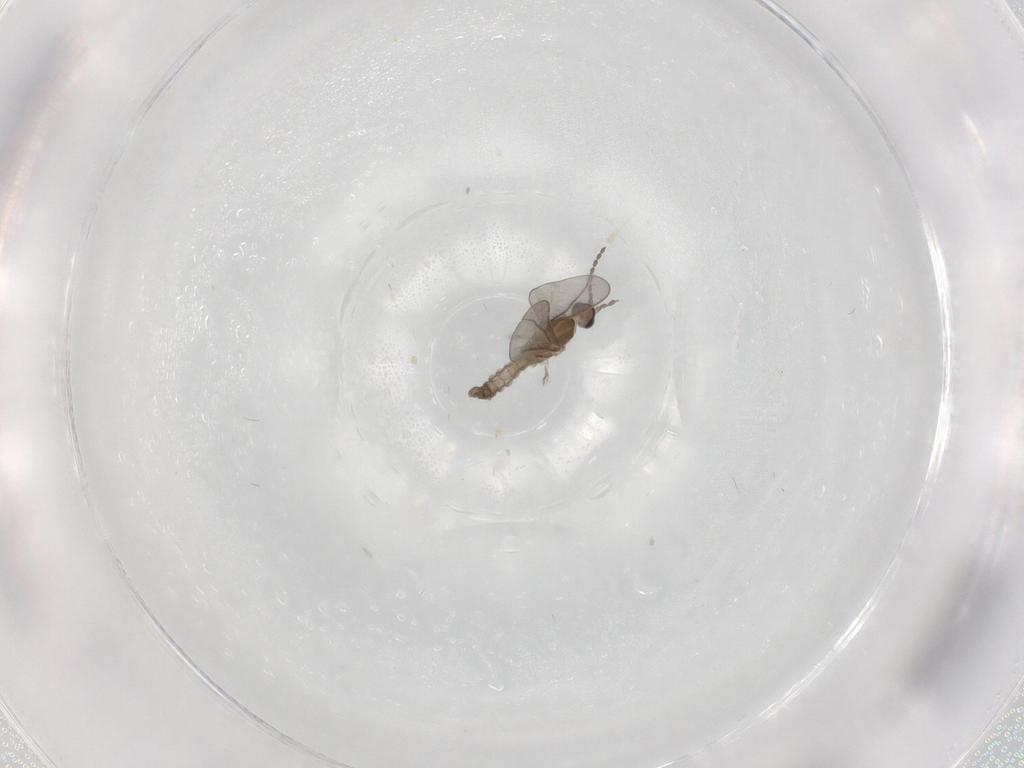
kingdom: Animalia
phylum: Arthropoda
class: Insecta
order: Diptera
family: Cecidomyiidae
